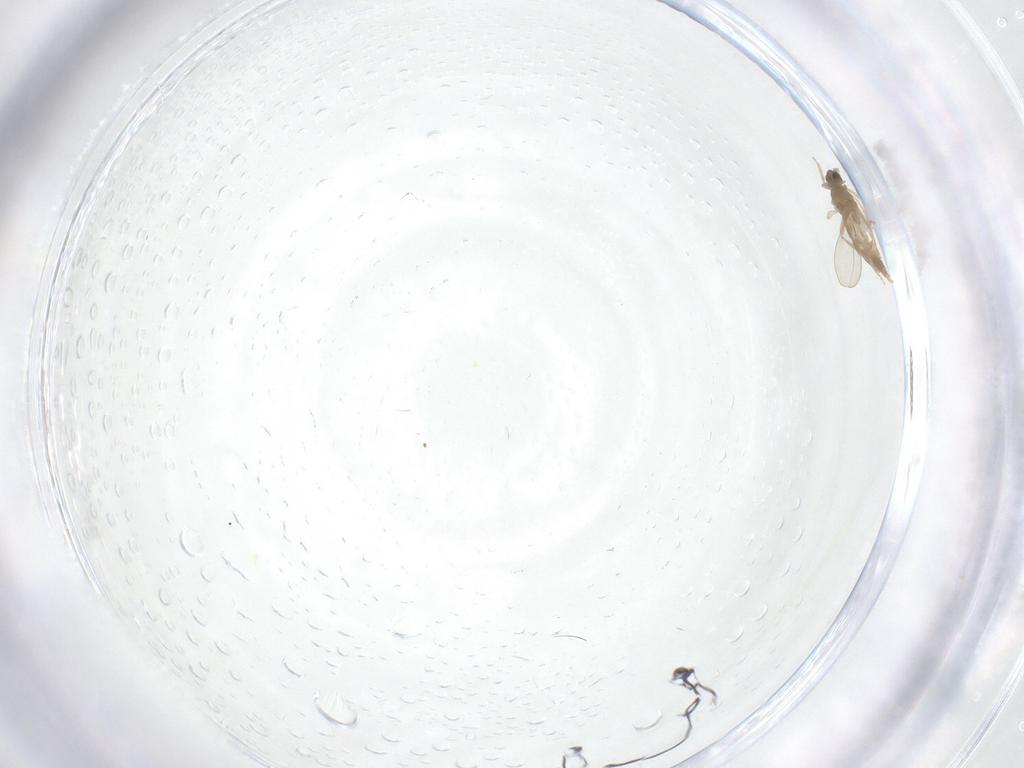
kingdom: Animalia
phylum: Arthropoda
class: Insecta
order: Diptera
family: Cecidomyiidae
